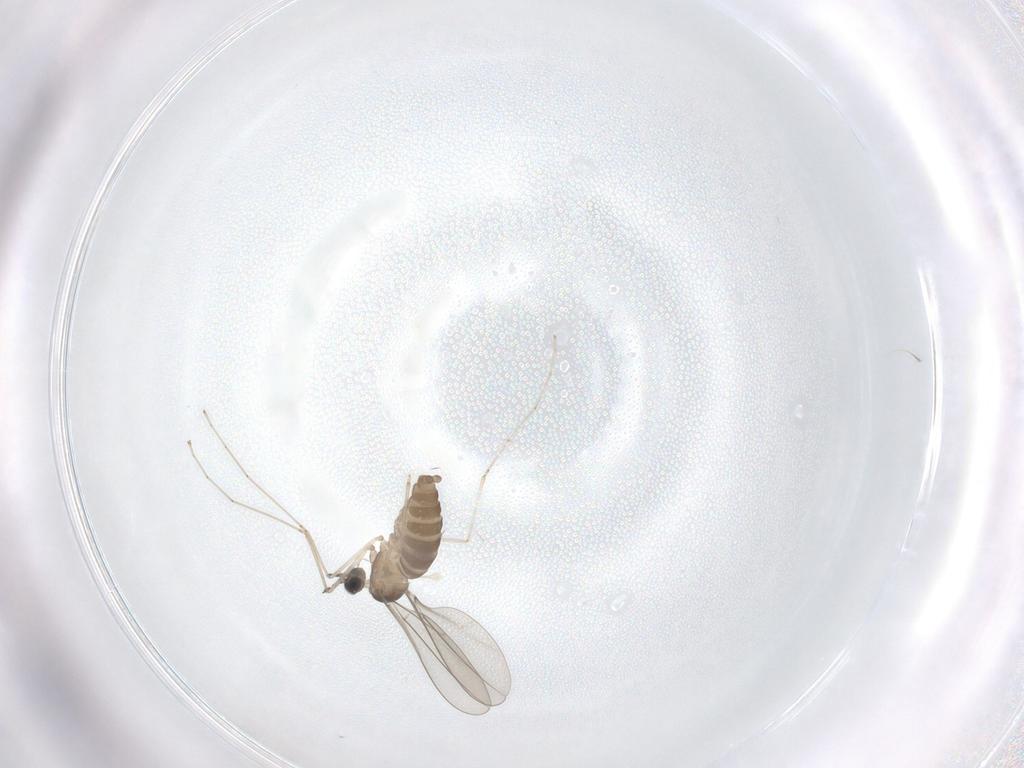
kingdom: Animalia
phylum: Arthropoda
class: Insecta
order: Diptera
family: Cecidomyiidae
